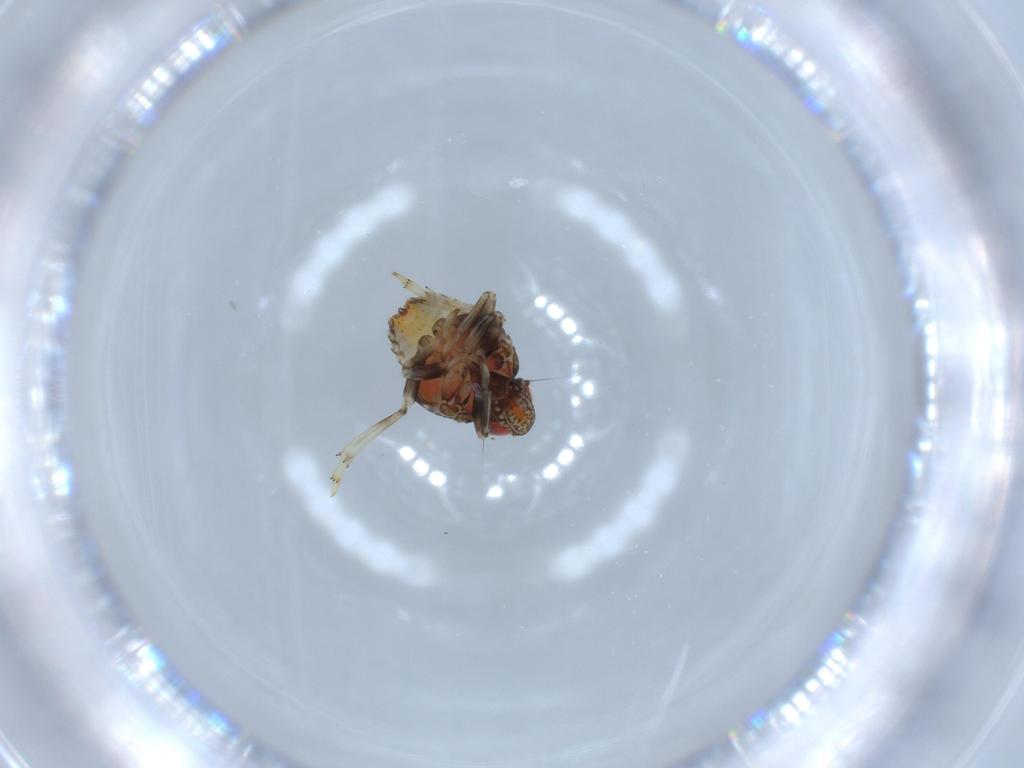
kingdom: Animalia
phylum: Arthropoda
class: Insecta
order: Hemiptera
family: Issidae
